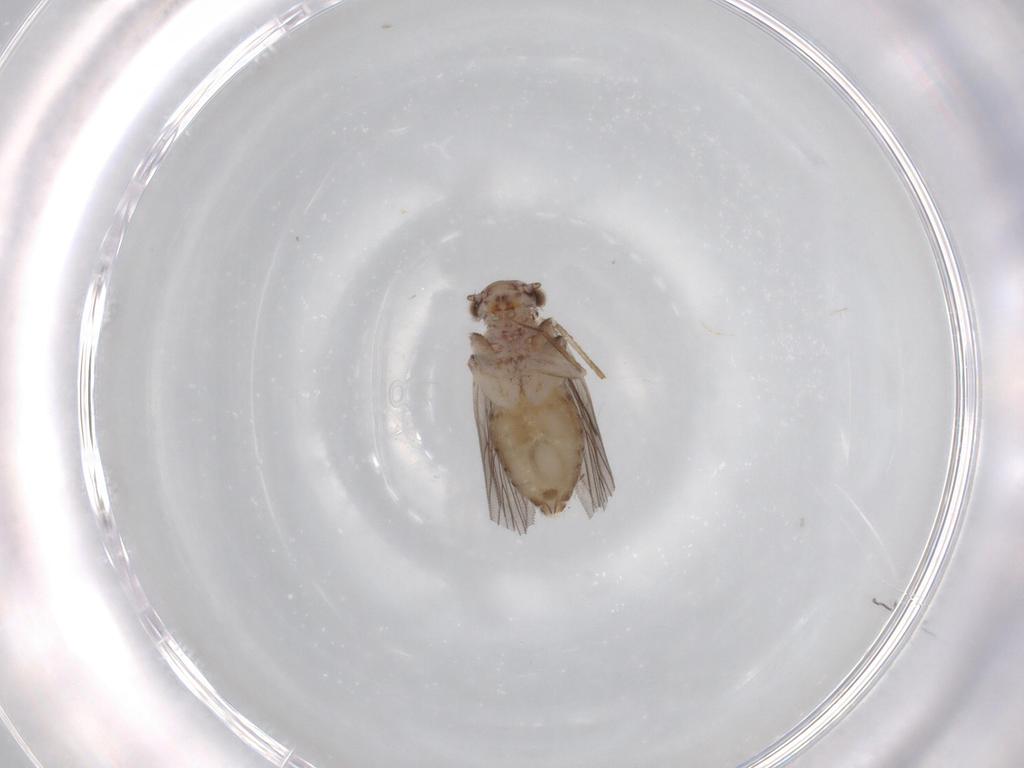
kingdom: Animalia
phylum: Arthropoda
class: Insecta
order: Psocodea
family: Lepidopsocidae
